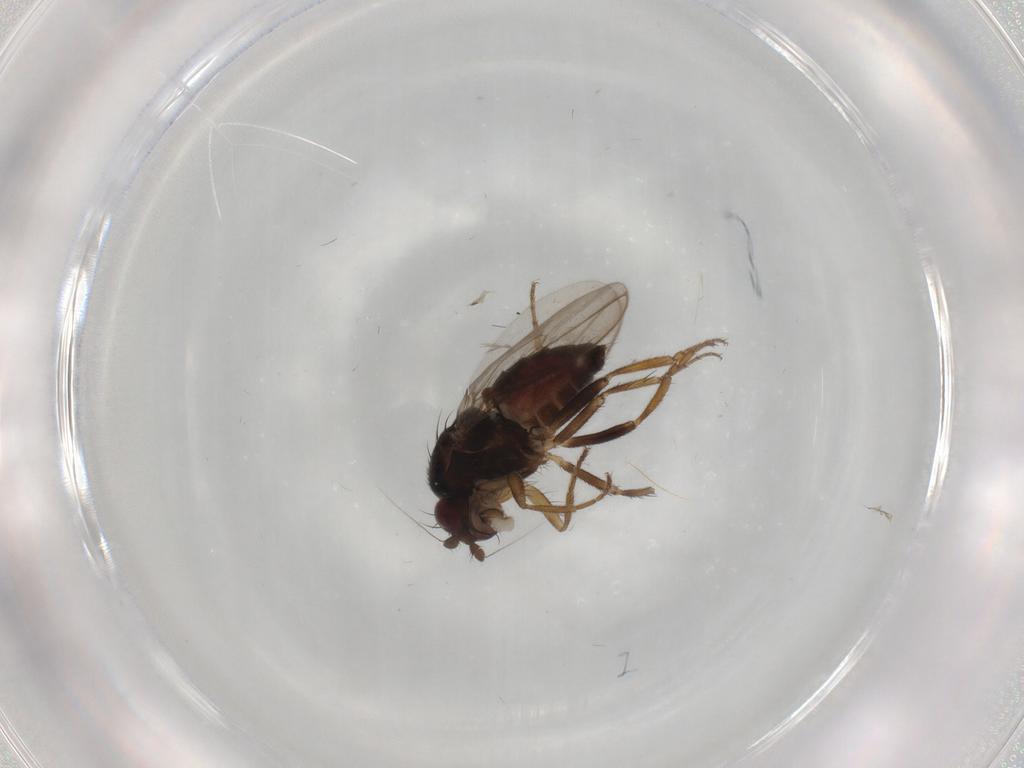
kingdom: Animalia
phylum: Arthropoda
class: Insecta
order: Diptera
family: Sphaeroceridae
